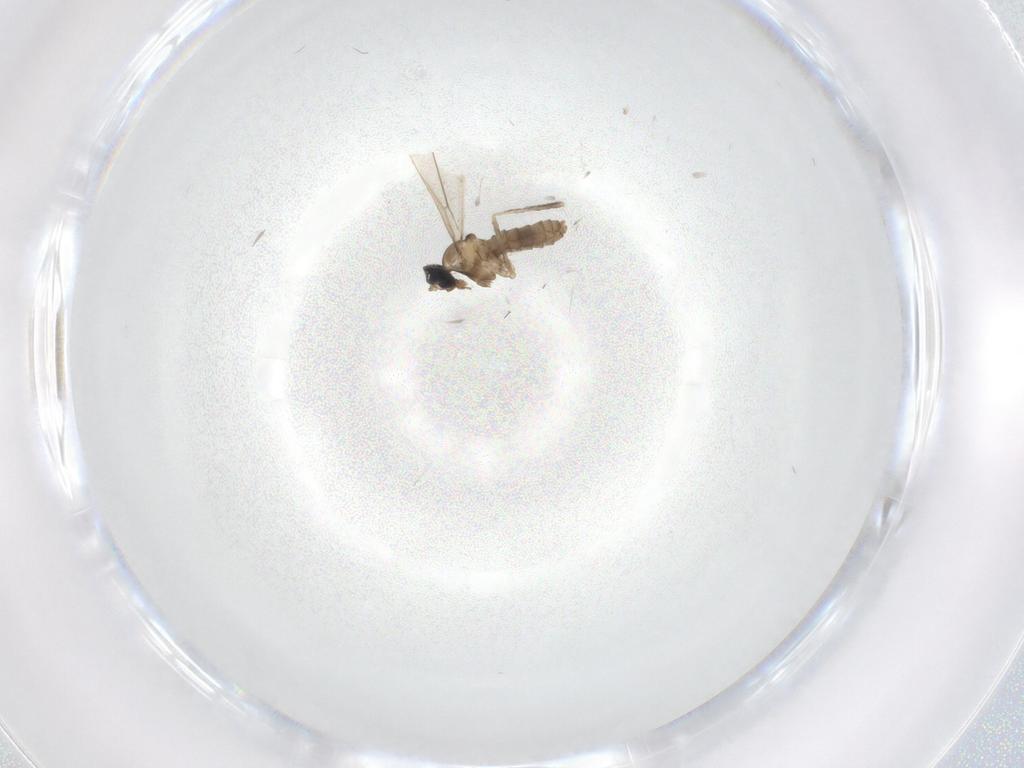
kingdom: Animalia
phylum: Arthropoda
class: Insecta
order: Diptera
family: Cecidomyiidae
